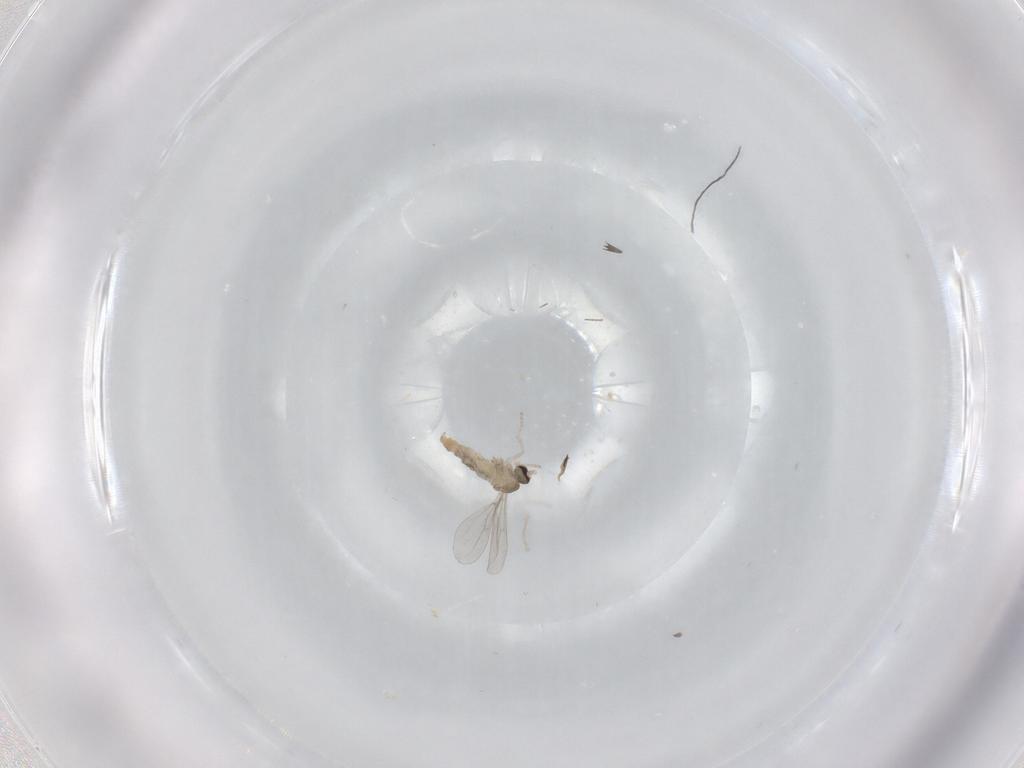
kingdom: Animalia
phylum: Arthropoda
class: Insecta
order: Diptera
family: Cecidomyiidae
